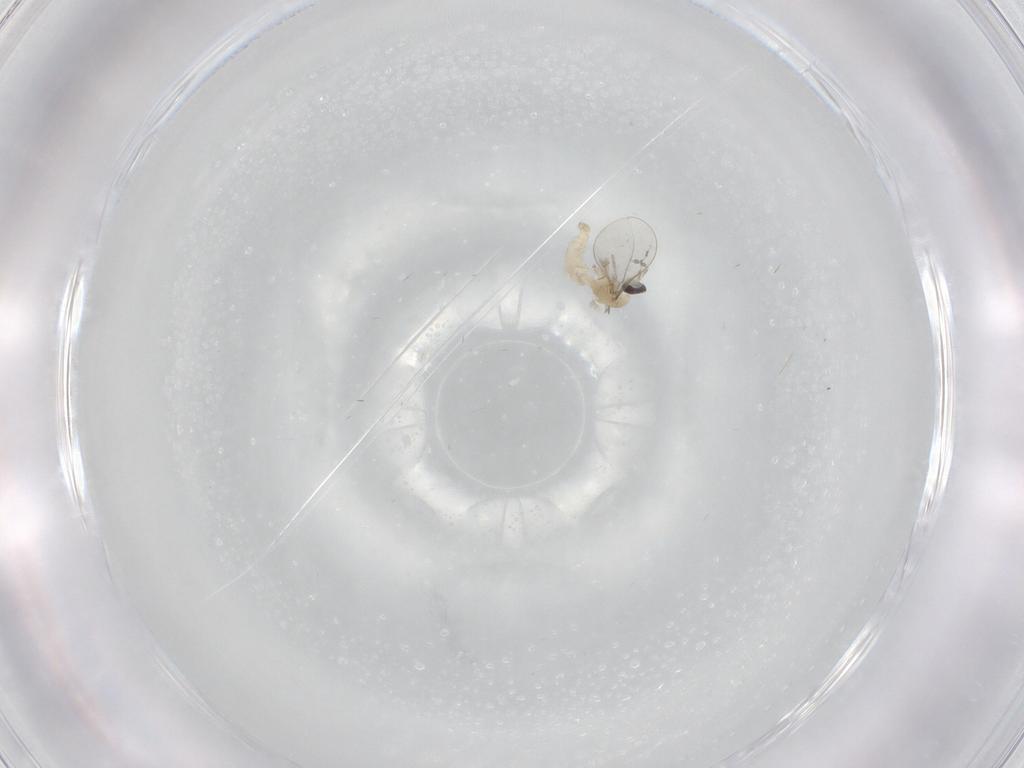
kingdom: Animalia
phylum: Arthropoda
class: Insecta
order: Diptera
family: Cecidomyiidae
